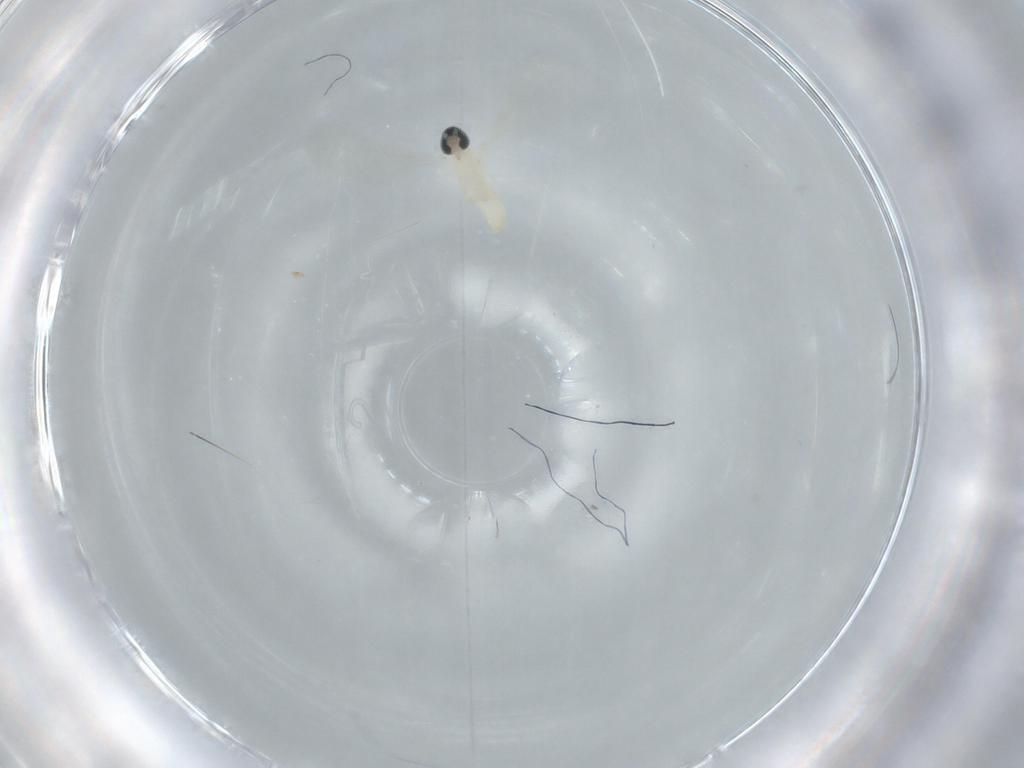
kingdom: Animalia
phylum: Arthropoda
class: Insecta
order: Diptera
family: Cecidomyiidae
